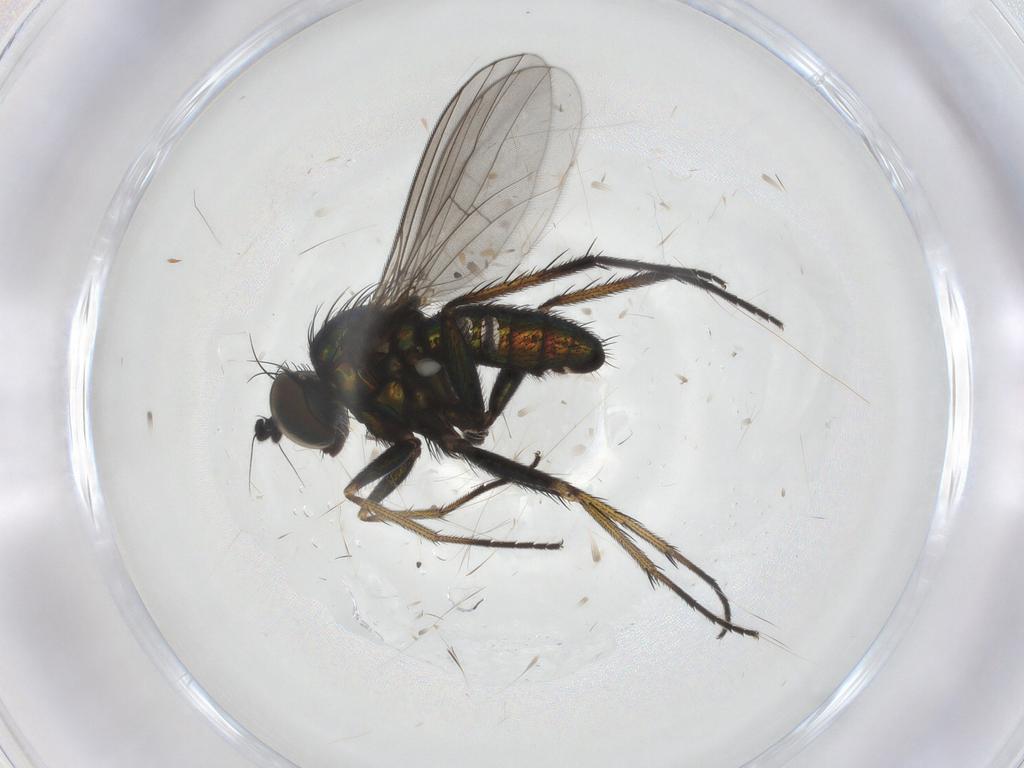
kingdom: Animalia
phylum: Arthropoda
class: Insecta
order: Diptera
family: Dolichopodidae
